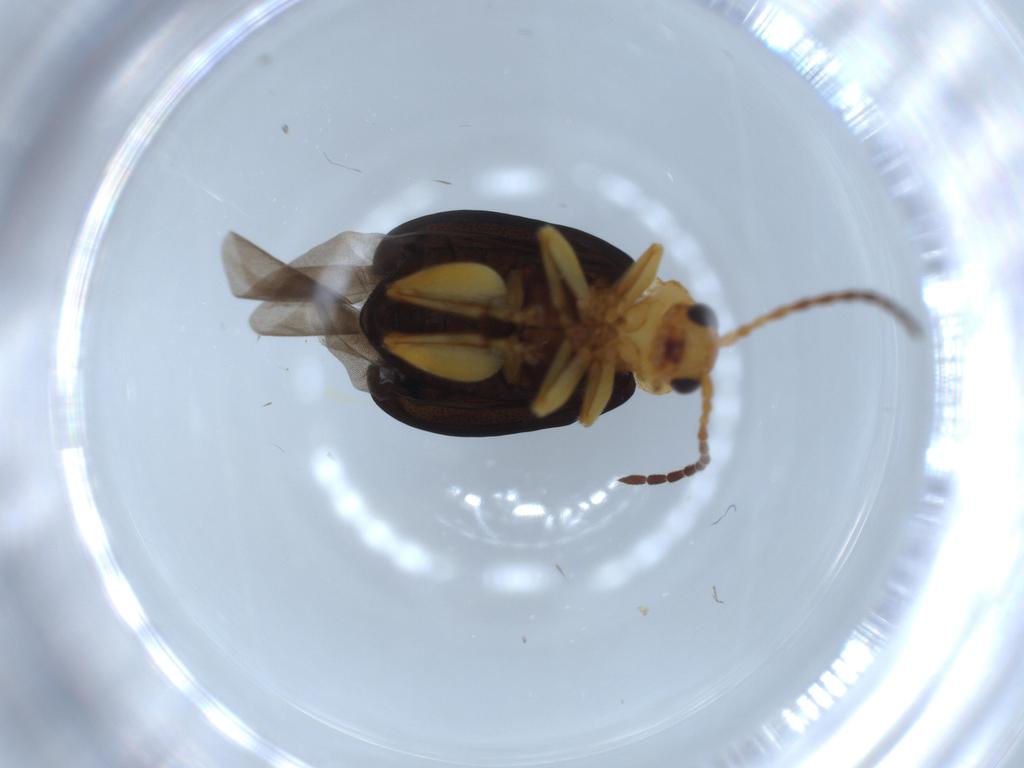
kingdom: Animalia
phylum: Arthropoda
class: Insecta
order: Coleoptera
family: Chrysomelidae
